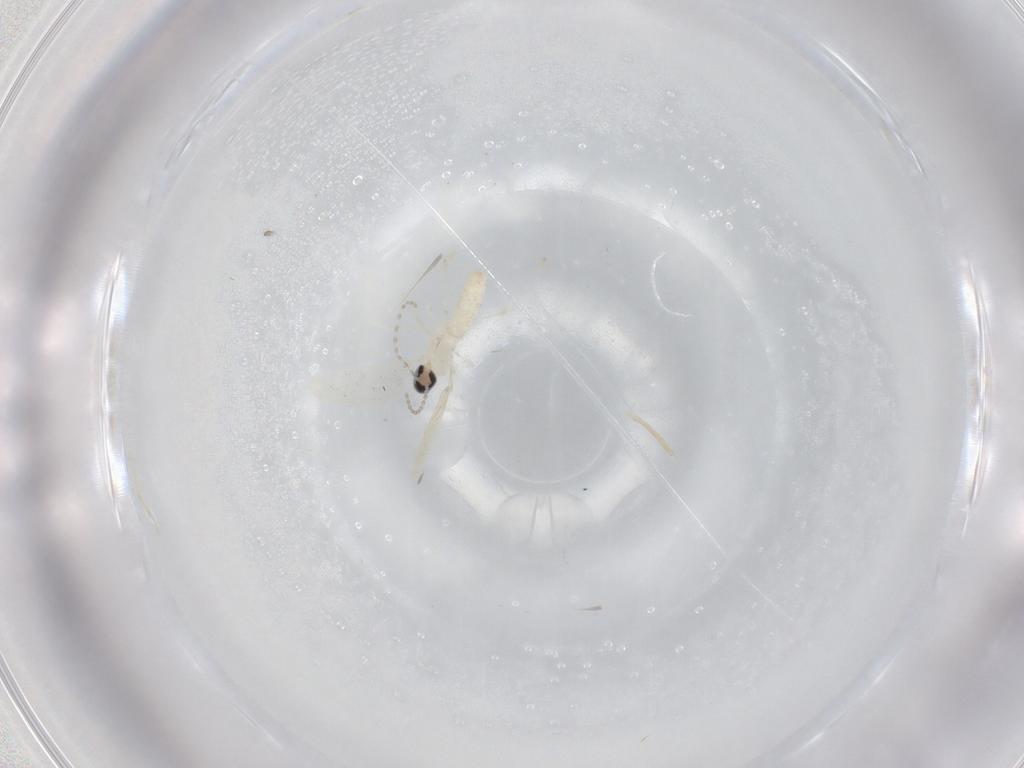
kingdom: Animalia
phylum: Arthropoda
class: Insecta
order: Diptera
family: Cecidomyiidae
